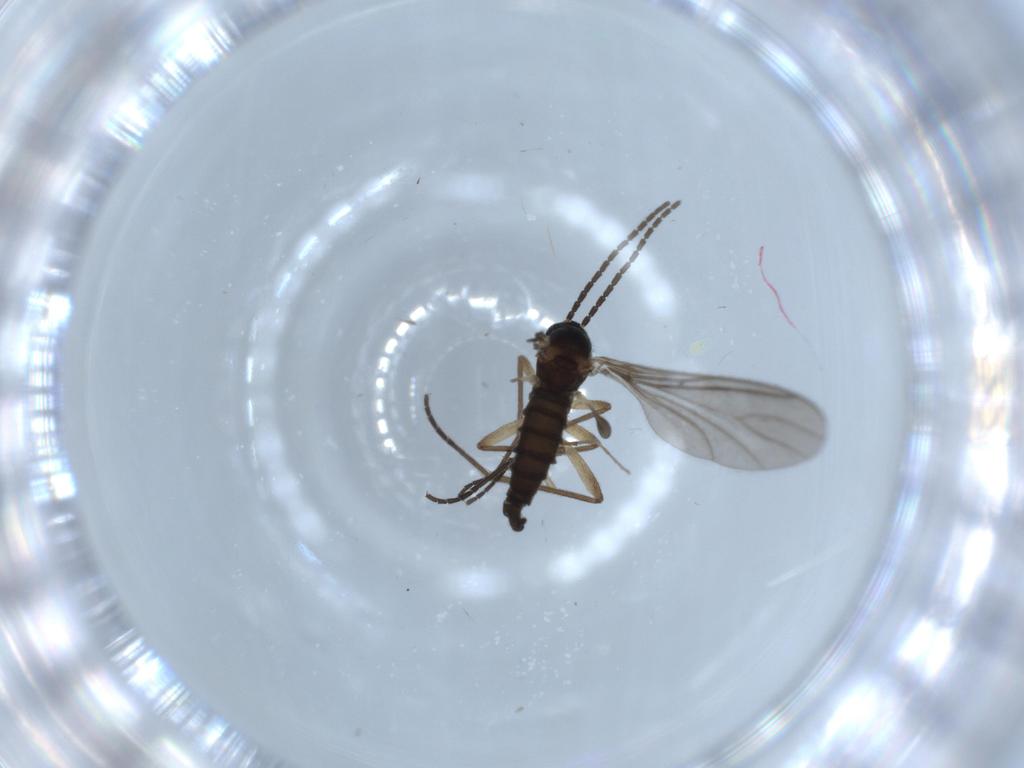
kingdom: Animalia
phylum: Arthropoda
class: Insecta
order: Diptera
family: Sciaridae
